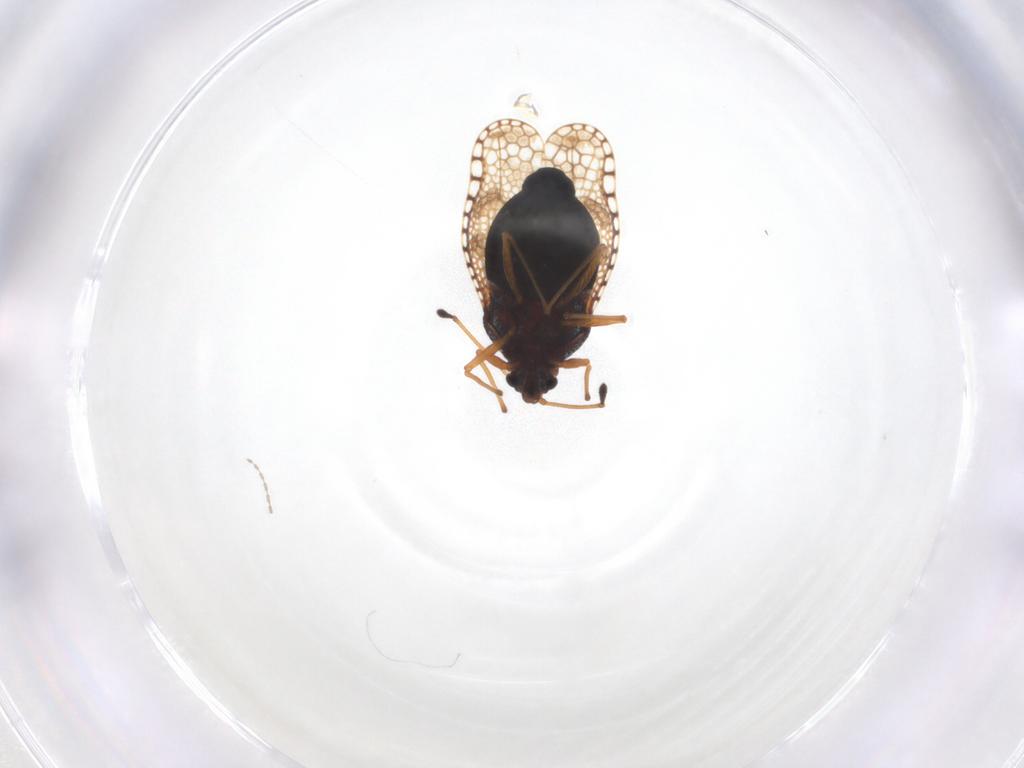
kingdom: Animalia
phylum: Arthropoda
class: Insecta
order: Hemiptera
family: Tingidae
